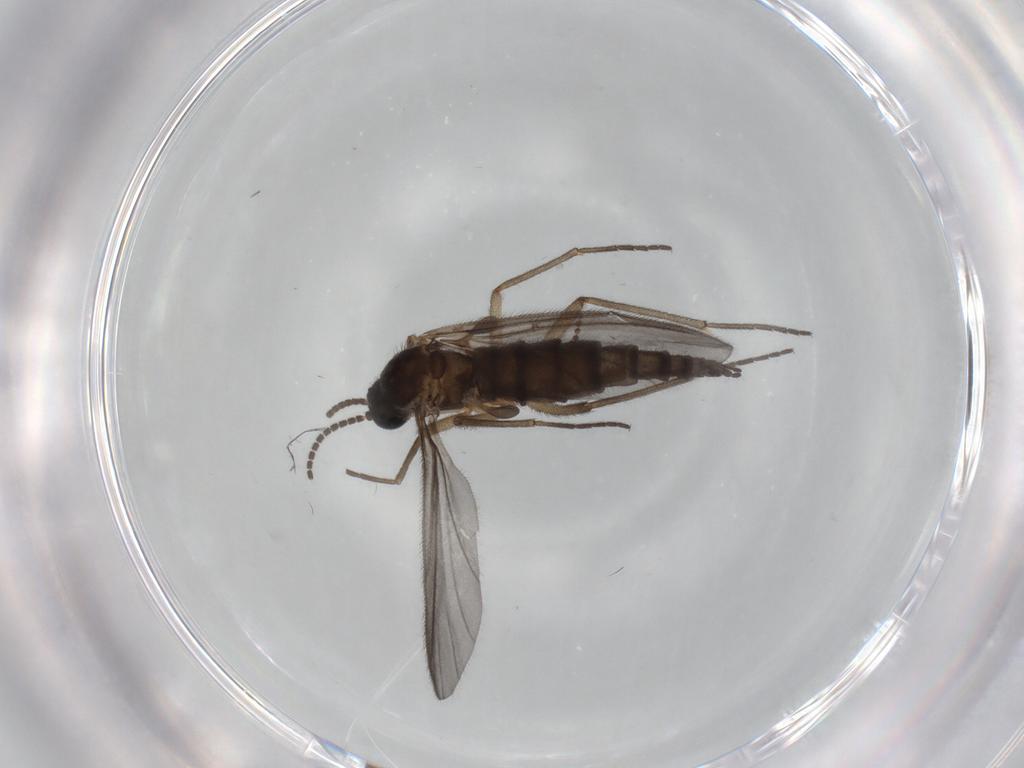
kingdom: Animalia
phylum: Arthropoda
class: Insecta
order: Diptera
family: Sciaridae
